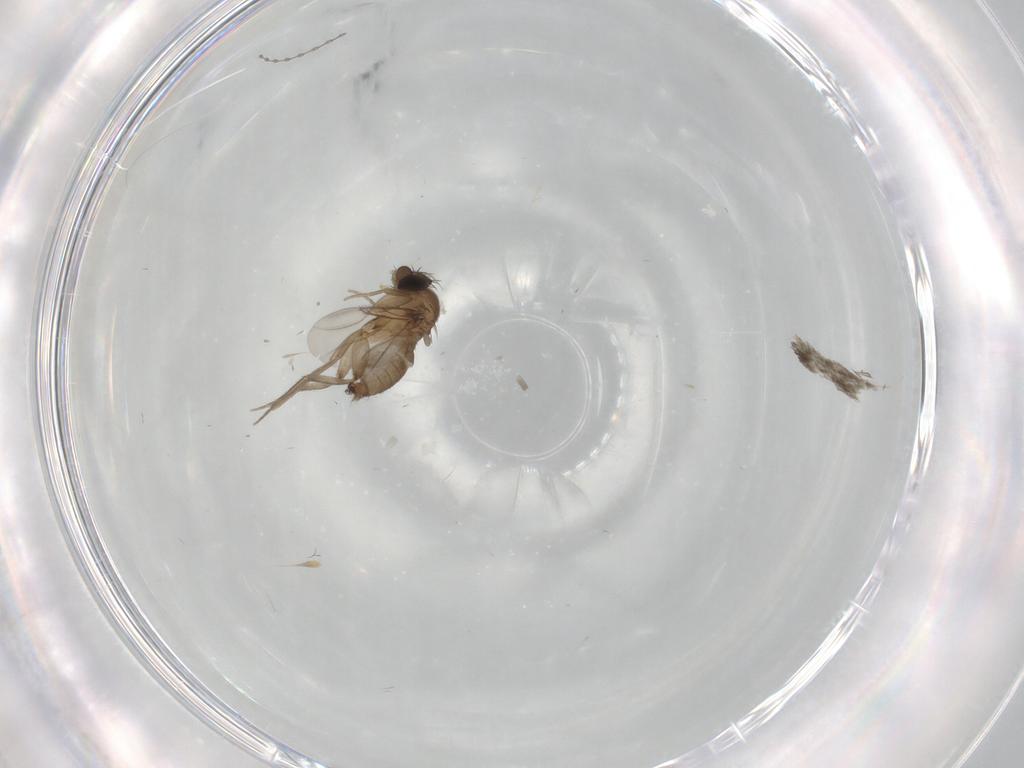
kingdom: Animalia
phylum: Arthropoda
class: Insecta
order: Diptera
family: Phoridae
